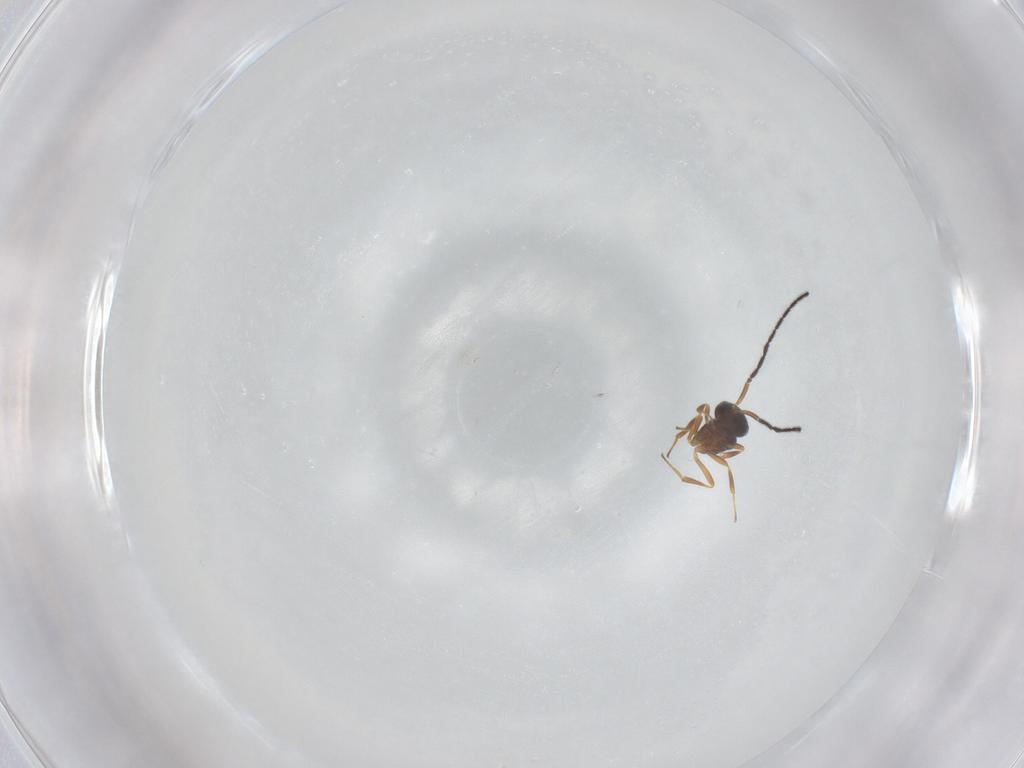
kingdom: Animalia
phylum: Arthropoda
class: Insecta
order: Hymenoptera
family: Scelionidae
